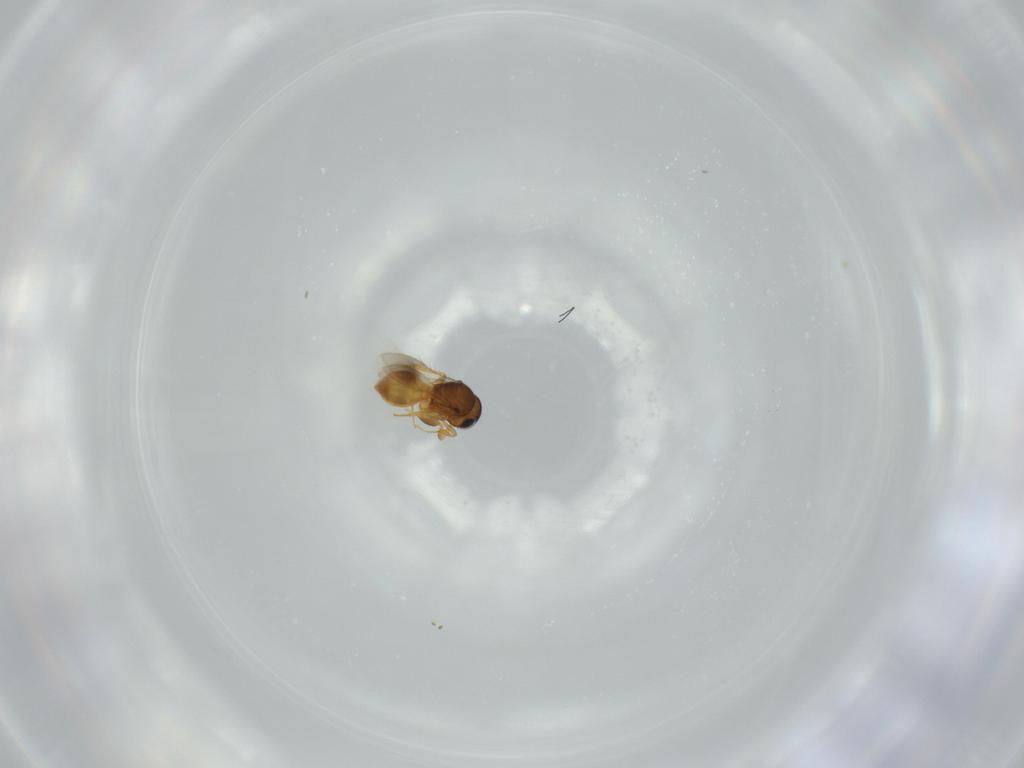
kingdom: Animalia
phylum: Arthropoda
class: Insecta
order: Hymenoptera
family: Scelionidae
